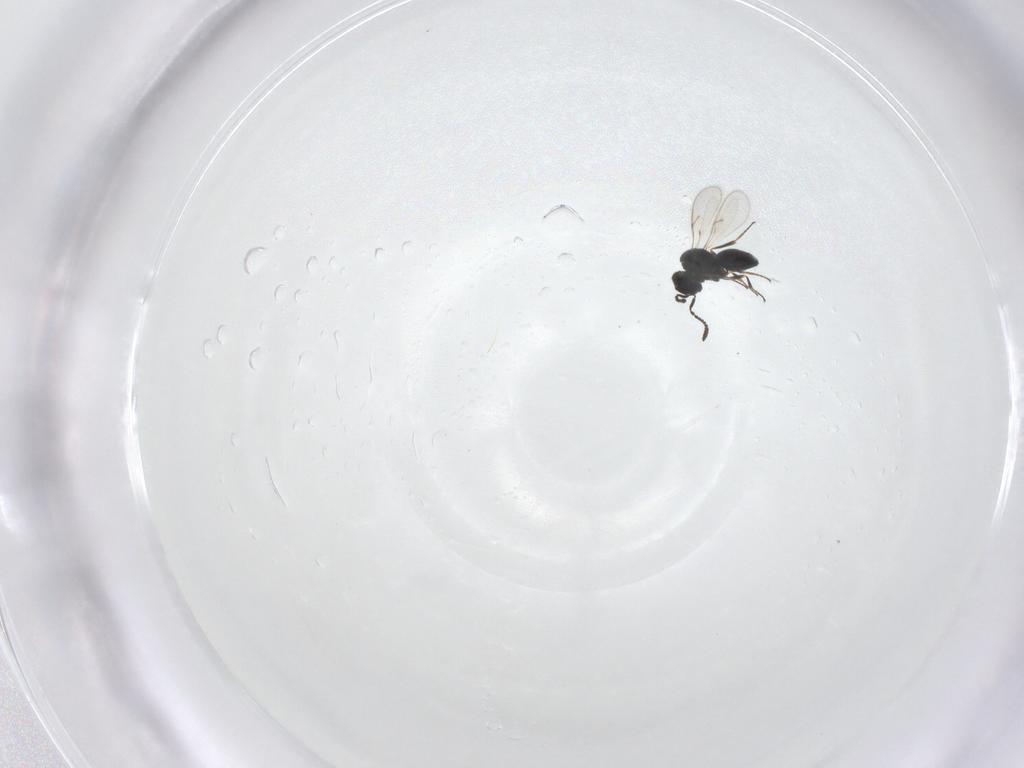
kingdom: Animalia
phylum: Arthropoda
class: Insecta
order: Hymenoptera
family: Scelionidae
